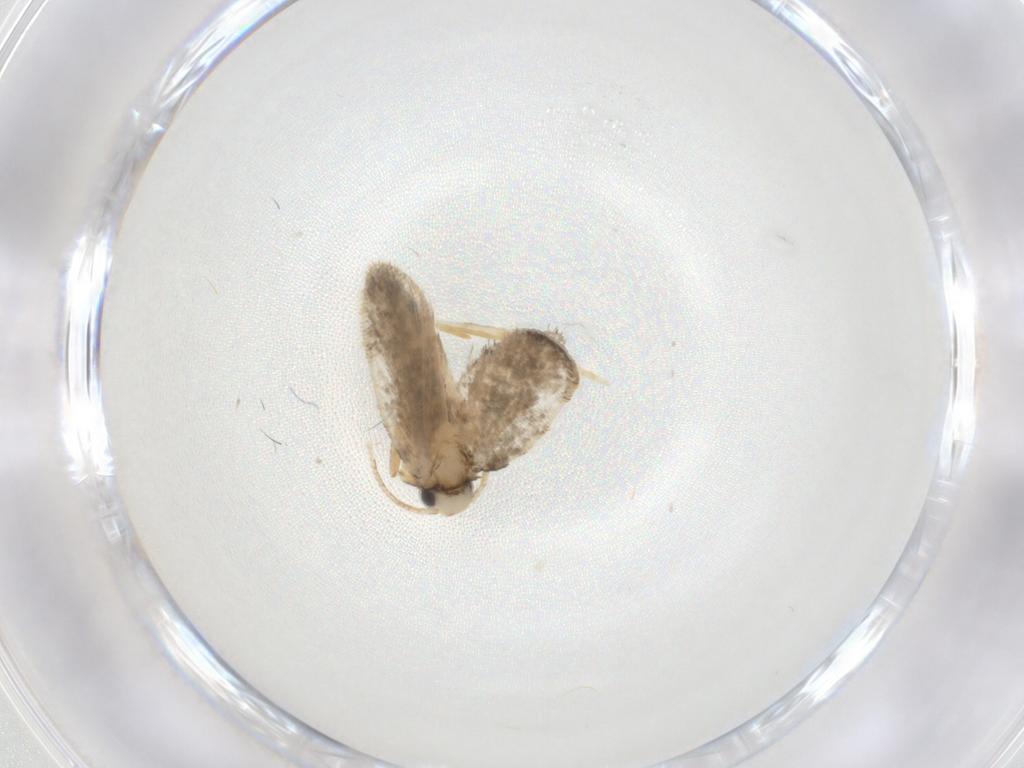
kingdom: Animalia
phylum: Arthropoda
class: Insecta
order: Lepidoptera
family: Psychidae
